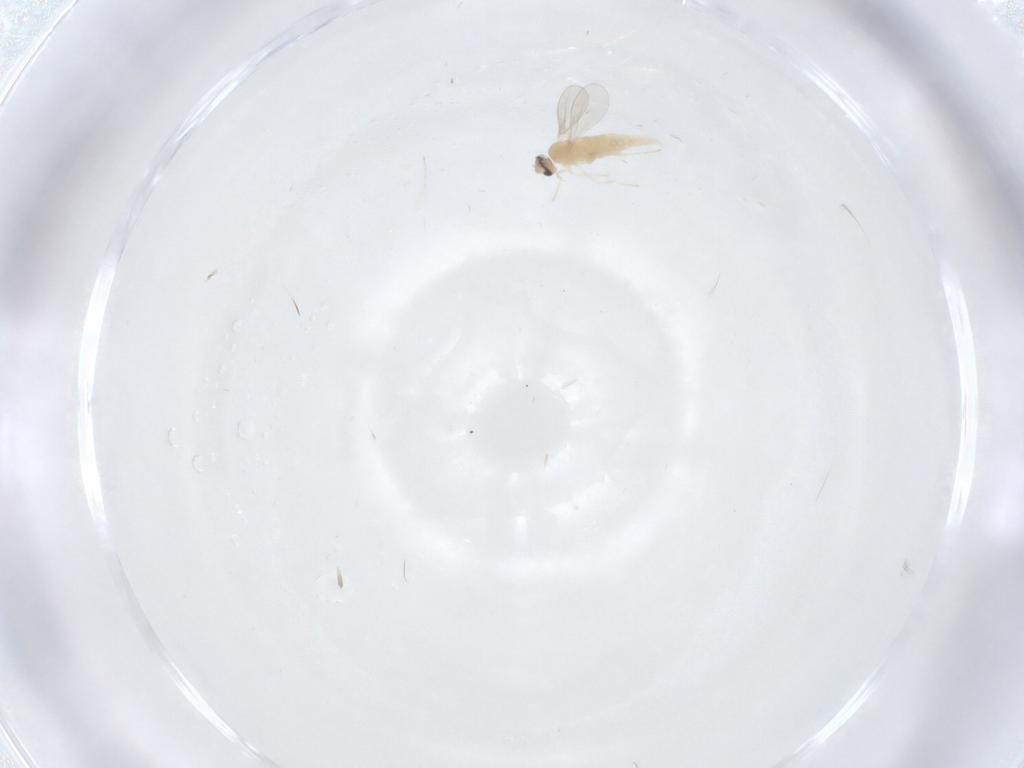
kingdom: Animalia
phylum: Arthropoda
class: Insecta
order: Diptera
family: Cecidomyiidae
